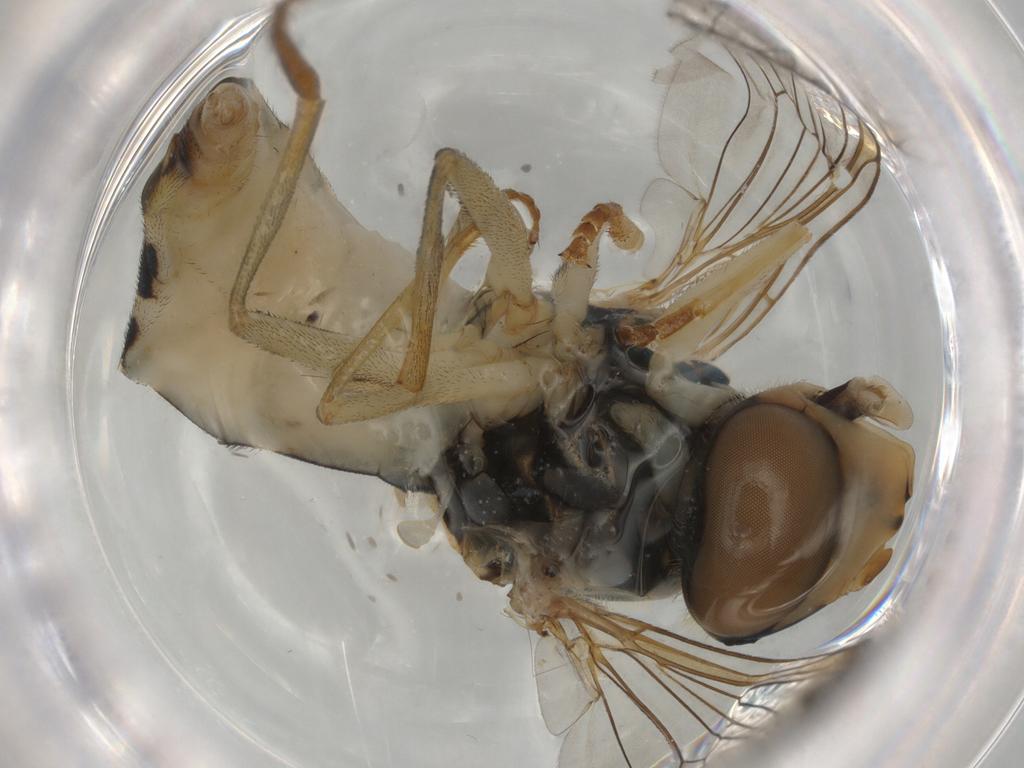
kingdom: Animalia
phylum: Arthropoda
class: Insecta
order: Diptera
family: Syrphidae
